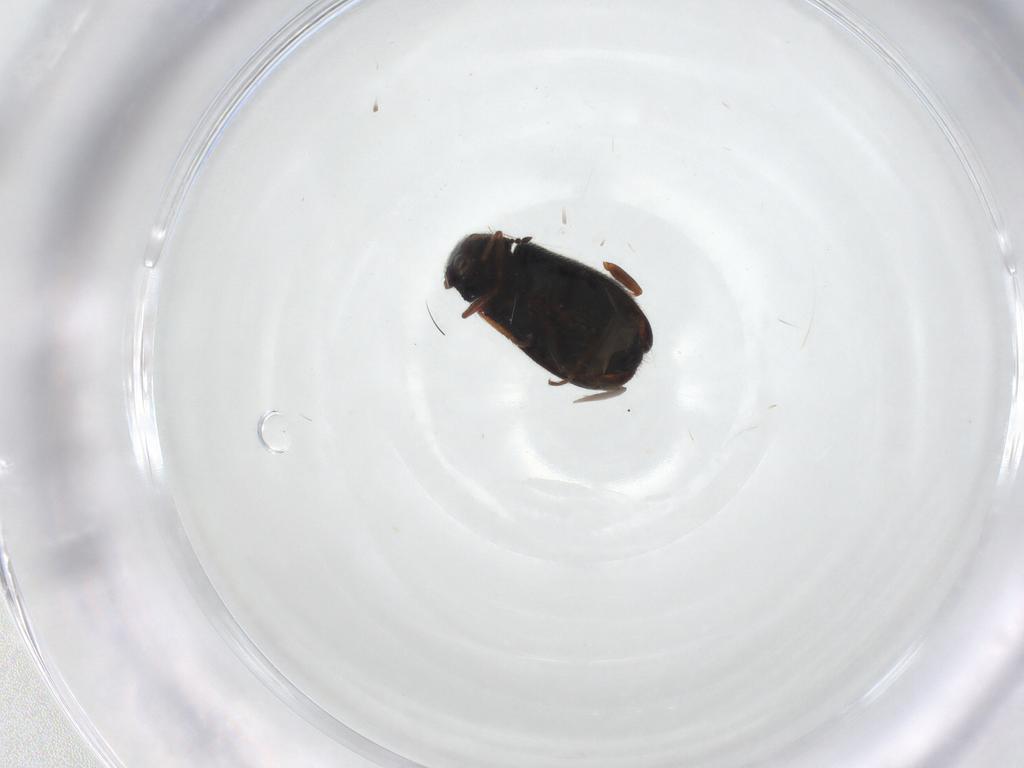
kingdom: Animalia
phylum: Arthropoda
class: Insecta
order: Coleoptera
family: Melyridae
